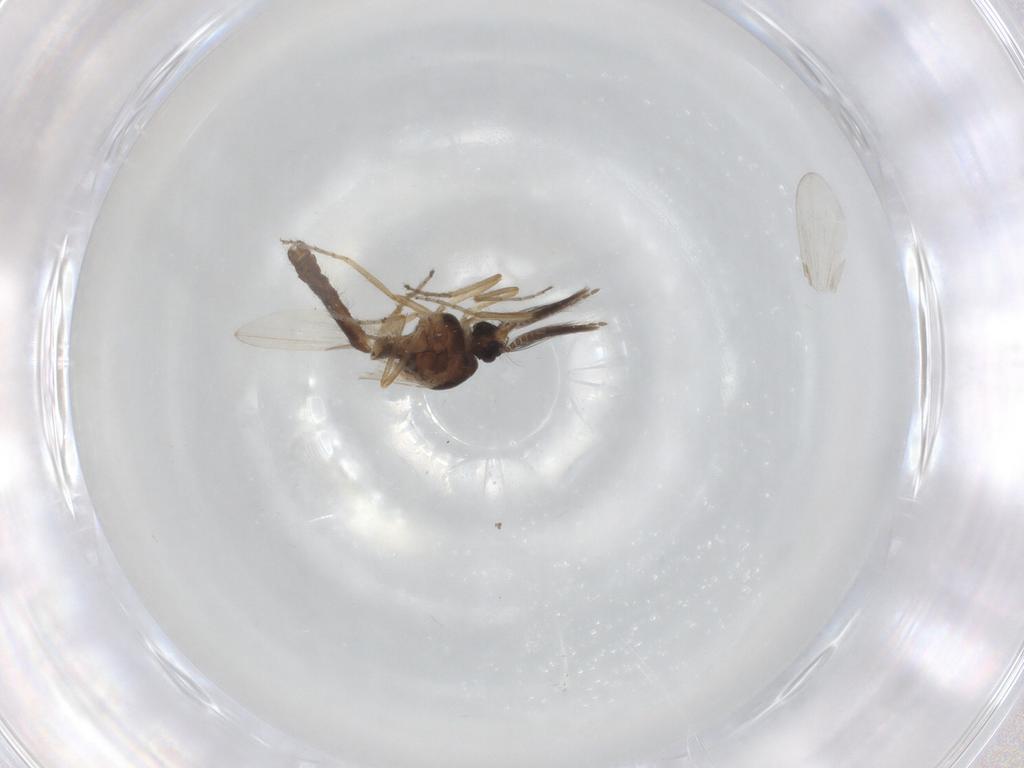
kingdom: Animalia
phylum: Arthropoda
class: Insecta
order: Diptera
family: Ceratopogonidae
